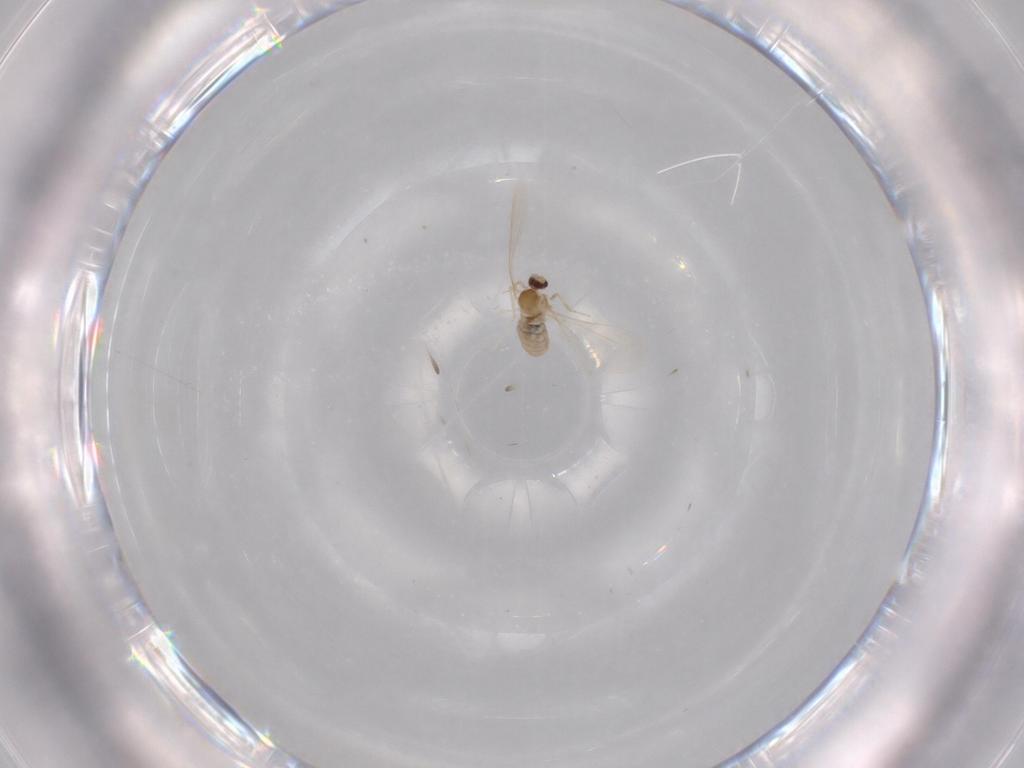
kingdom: Animalia
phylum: Arthropoda
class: Insecta
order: Diptera
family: Cecidomyiidae
